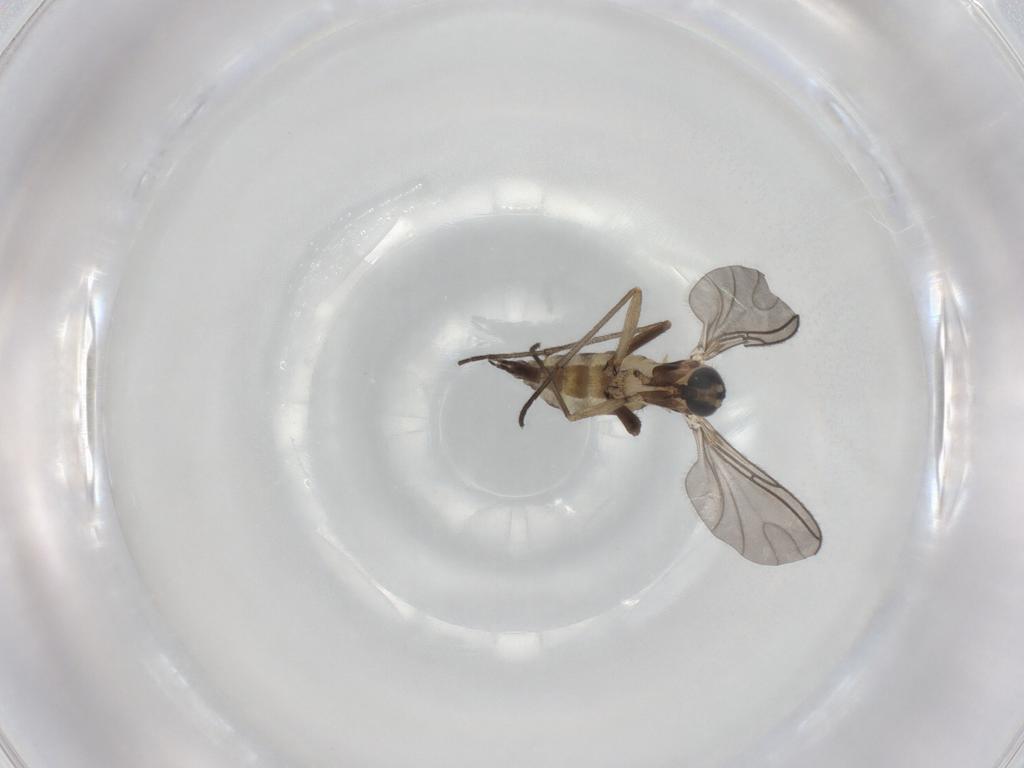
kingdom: Animalia
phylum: Arthropoda
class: Insecta
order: Diptera
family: Sciaridae
